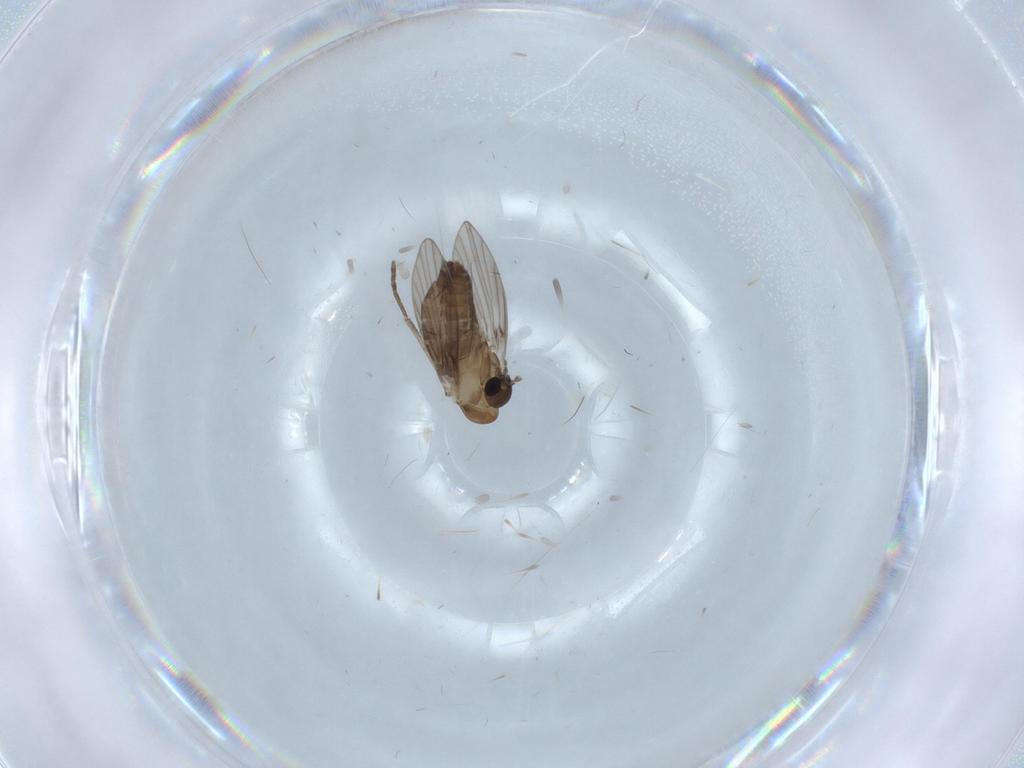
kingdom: Animalia
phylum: Arthropoda
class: Insecta
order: Diptera
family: Psychodidae
